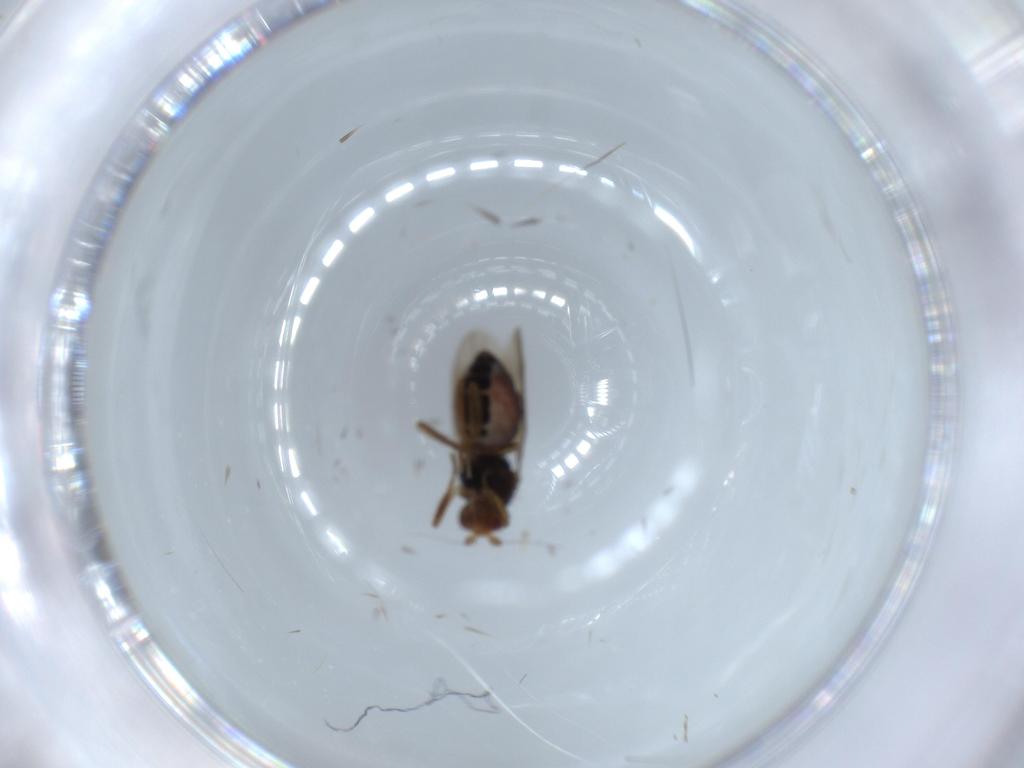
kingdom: Animalia
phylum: Arthropoda
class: Insecta
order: Diptera
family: Sphaeroceridae
